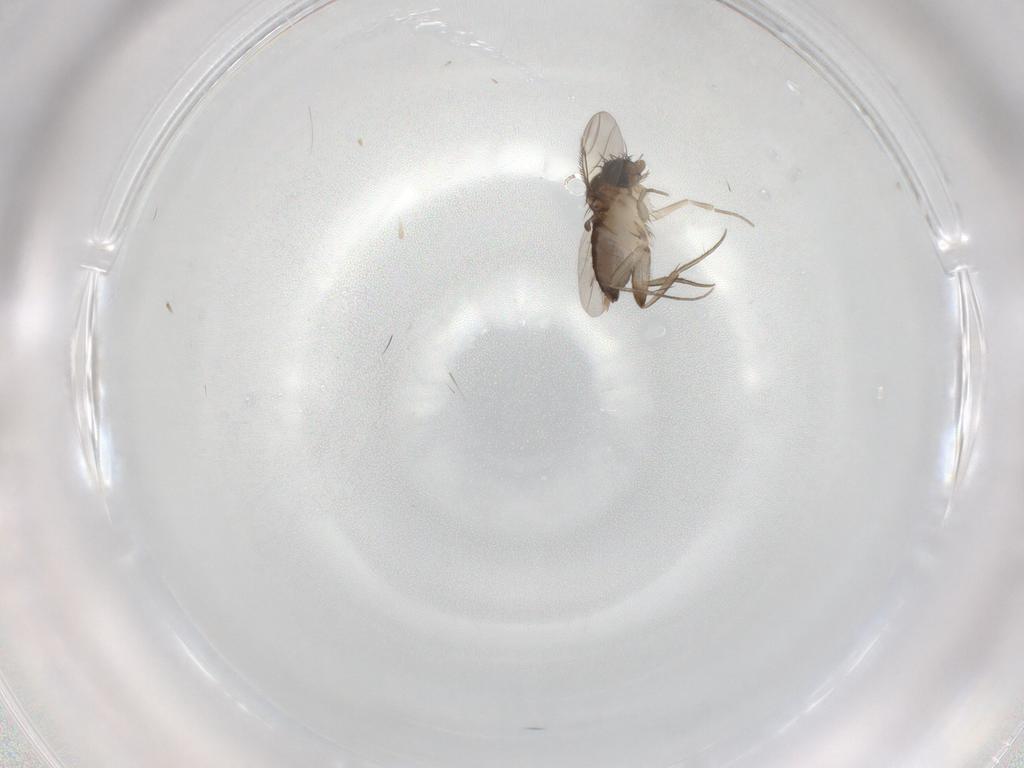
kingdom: Animalia
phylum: Arthropoda
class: Insecta
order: Diptera
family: Phoridae
